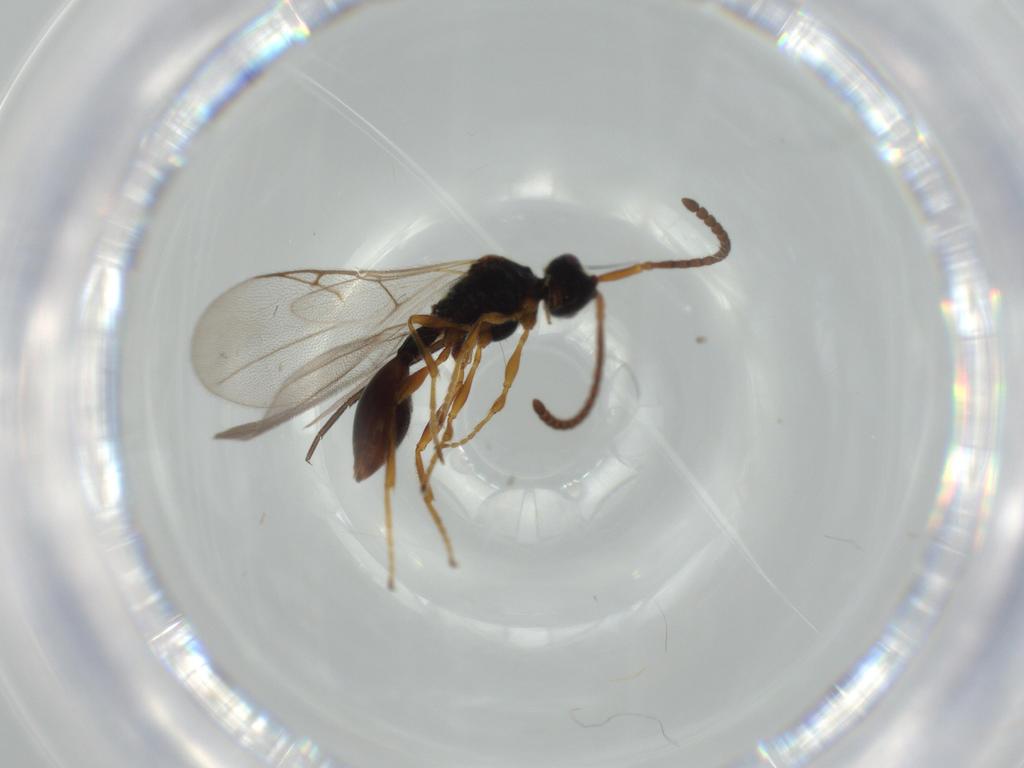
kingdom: Animalia
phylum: Arthropoda
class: Insecta
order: Hymenoptera
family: Braconidae
